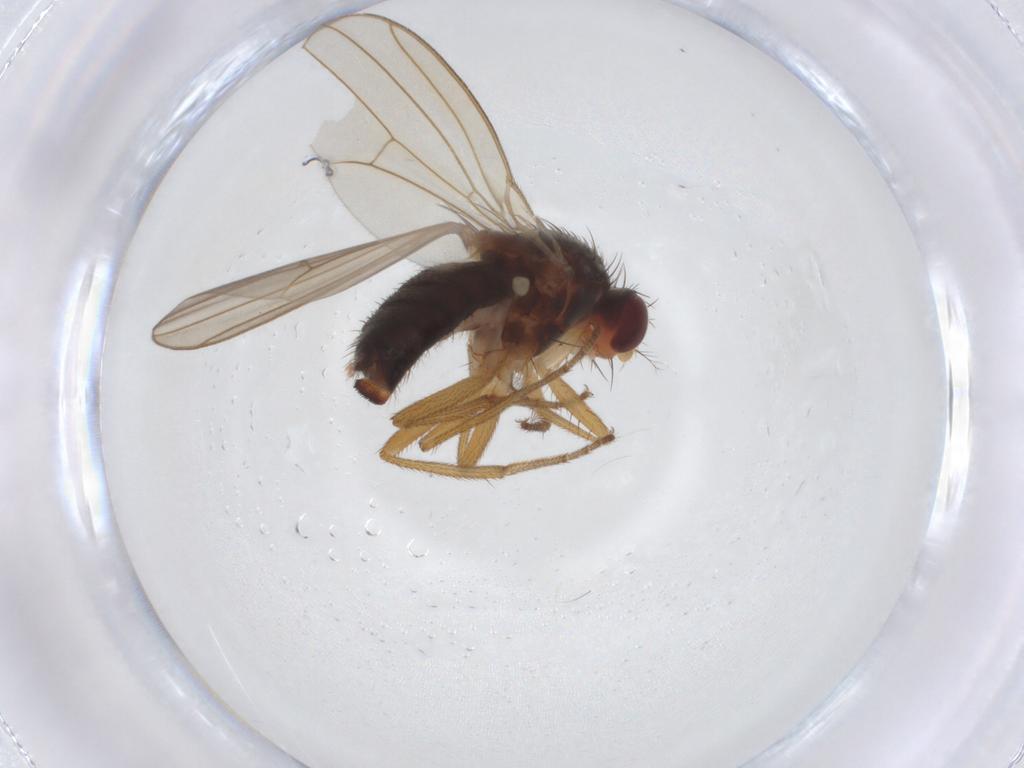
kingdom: Animalia
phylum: Arthropoda
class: Insecta
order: Diptera
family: Drosophilidae
